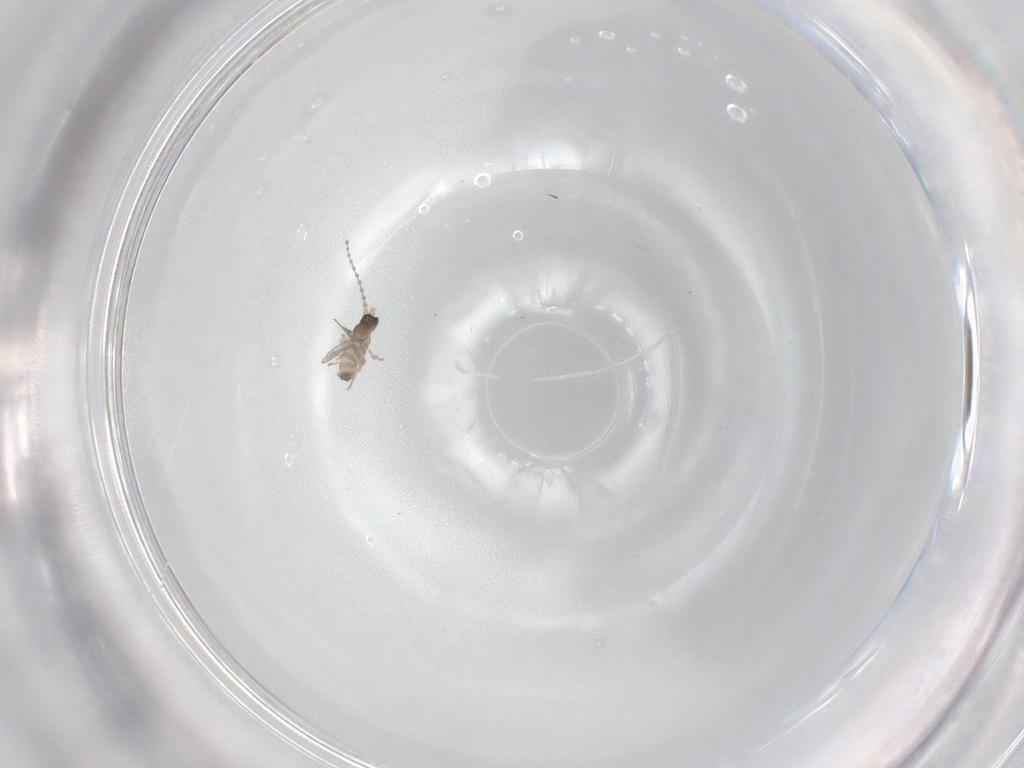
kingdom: Animalia
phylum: Arthropoda
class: Insecta
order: Diptera
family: Cecidomyiidae
